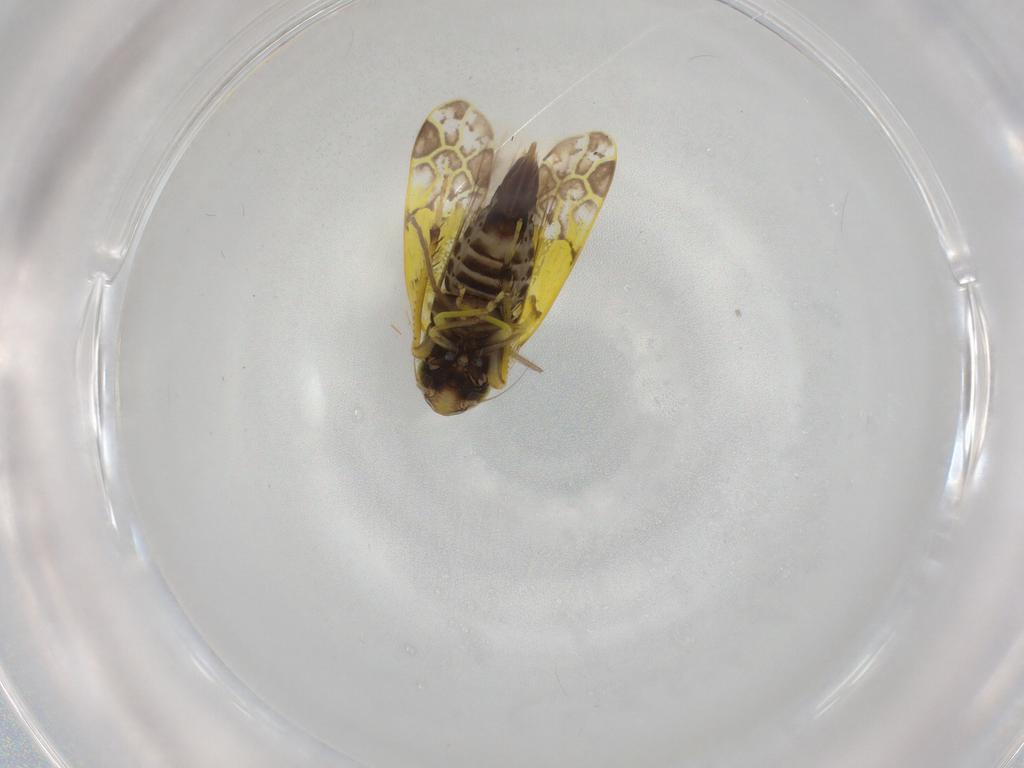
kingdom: Animalia
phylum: Arthropoda
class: Insecta
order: Hemiptera
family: Cicadellidae
